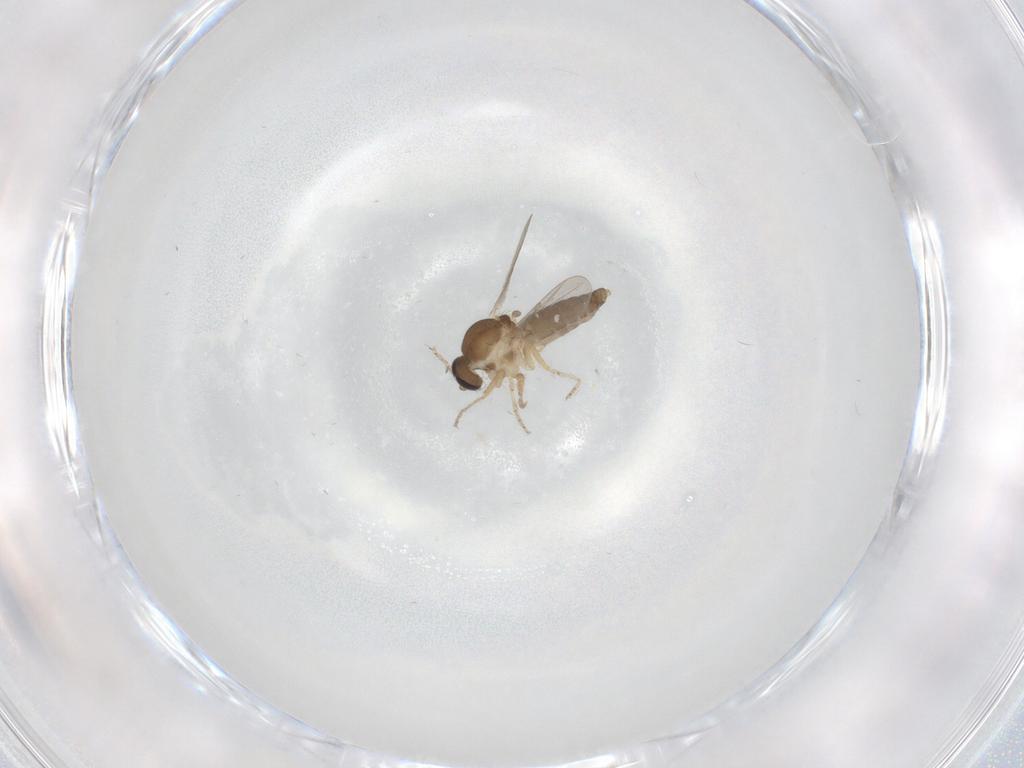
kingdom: Animalia
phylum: Arthropoda
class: Insecta
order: Diptera
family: Ceratopogonidae
